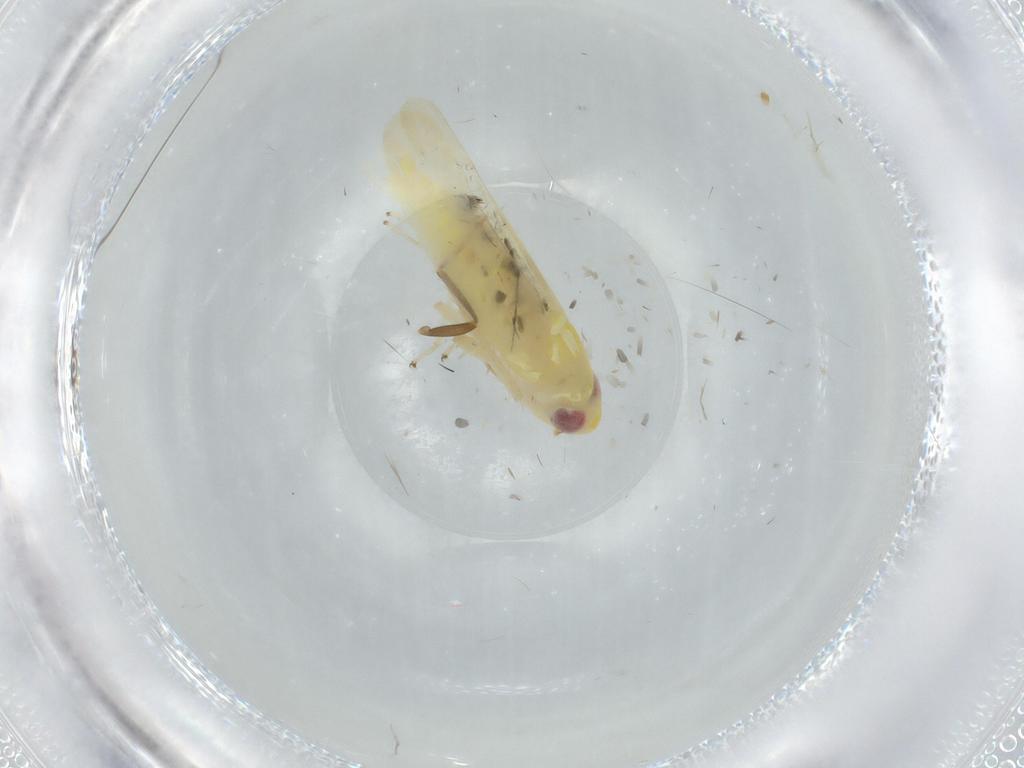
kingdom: Animalia
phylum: Arthropoda
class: Insecta
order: Hemiptera
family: Cicadellidae
